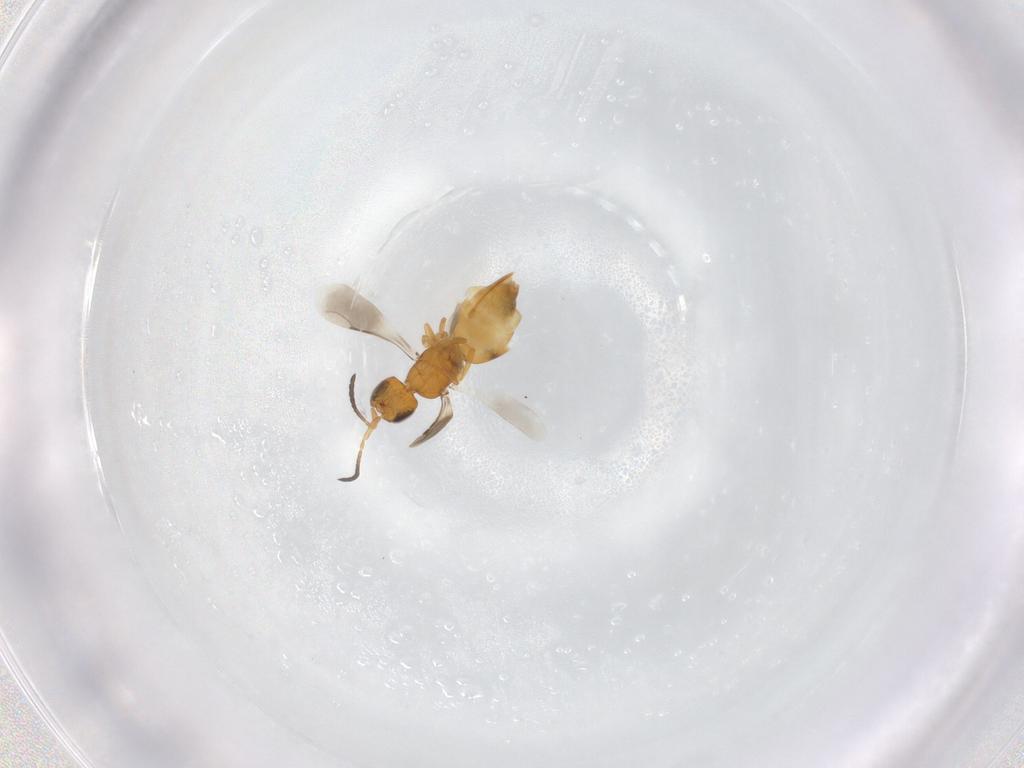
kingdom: Animalia
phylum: Arthropoda
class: Insecta
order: Hymenoptera
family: Ceraphronidae
